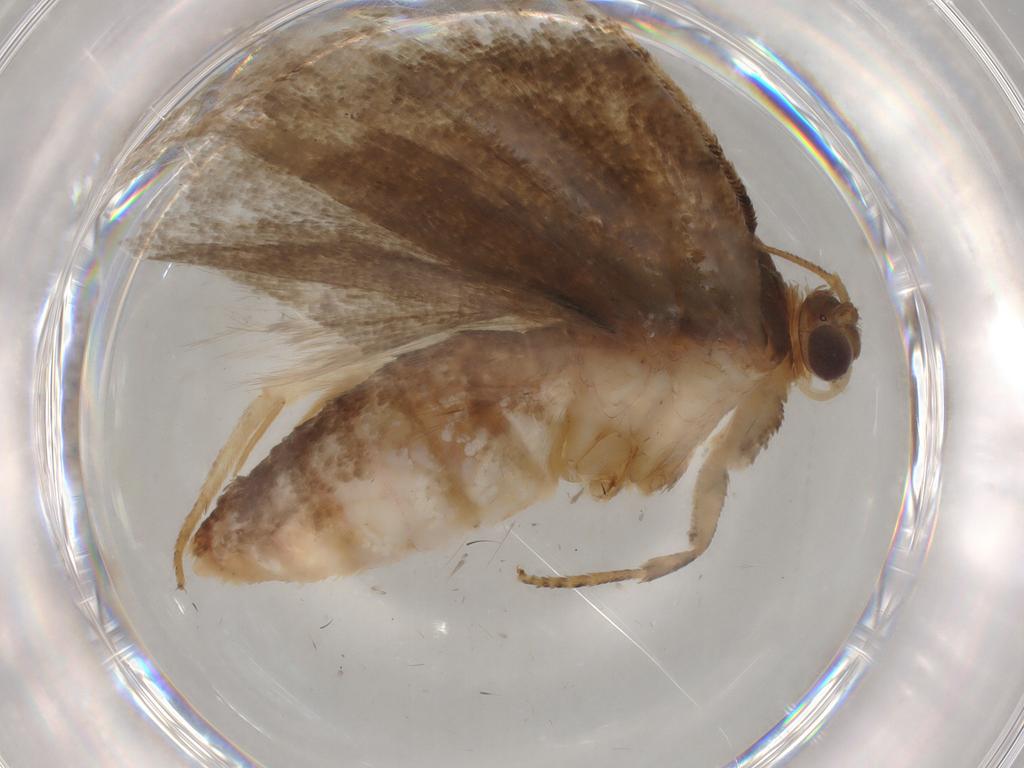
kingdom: Animalia
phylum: Arthropoda
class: Insecta
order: Lepidoptera
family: Tortricidae
